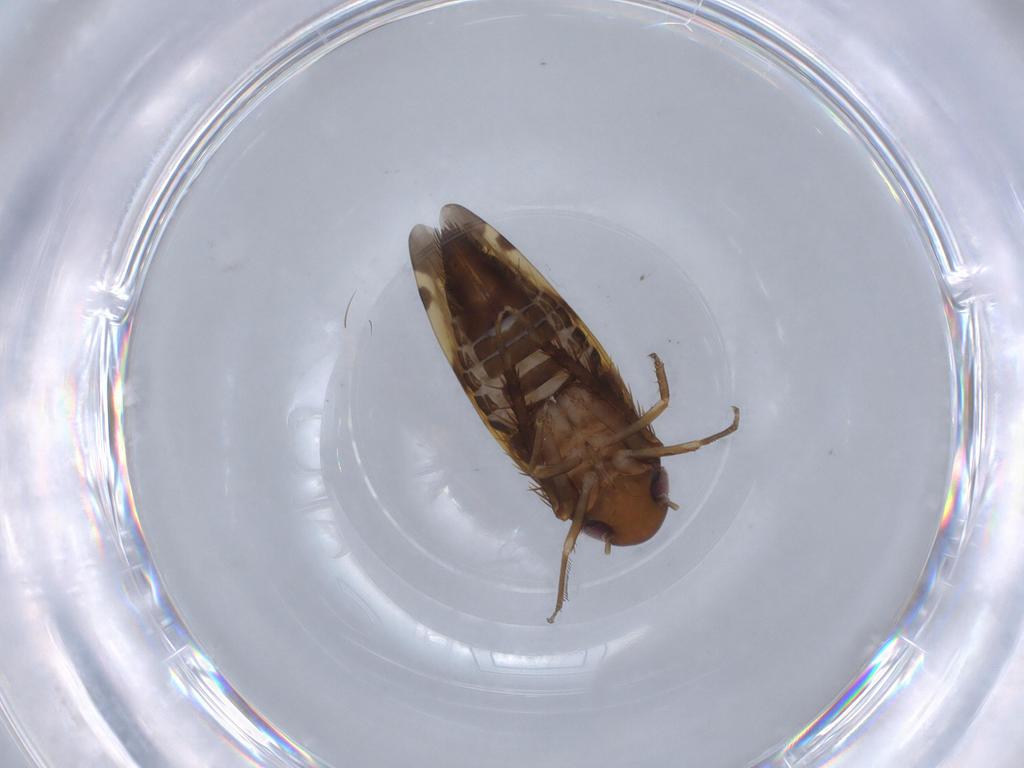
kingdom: Animalia
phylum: Arthropoda
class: Insecta
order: Hemiptera
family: Cicadellidae
